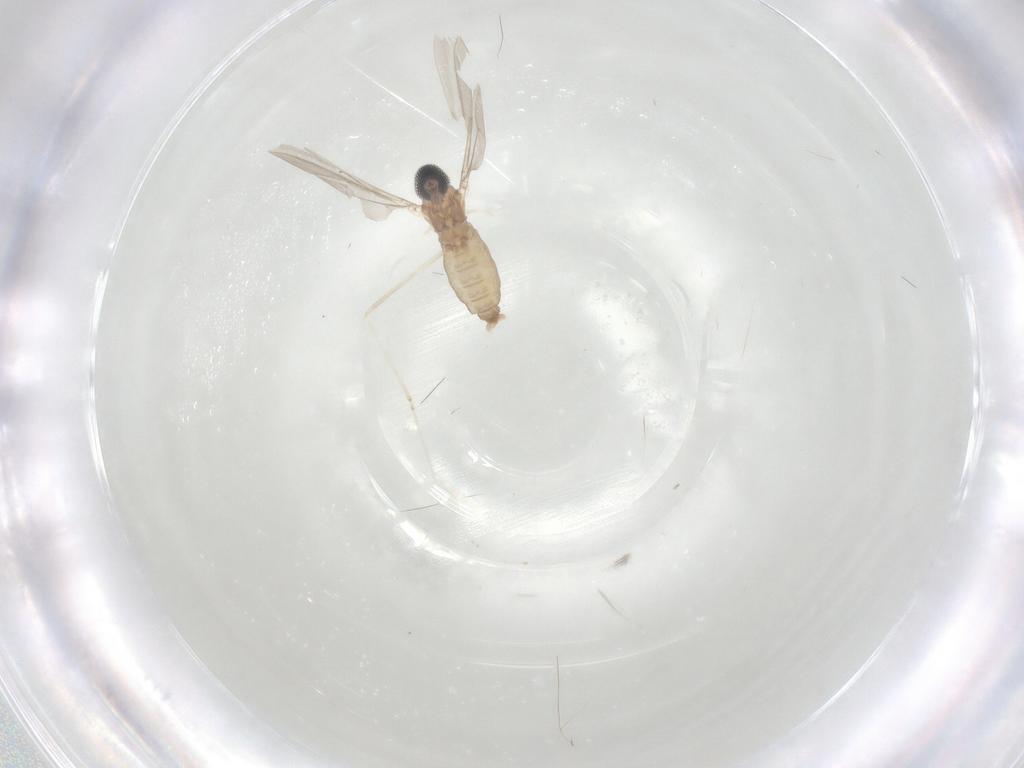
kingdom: Animalia
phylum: Arthropoda
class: Insecta
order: Diptera
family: Cecidomyiidae
